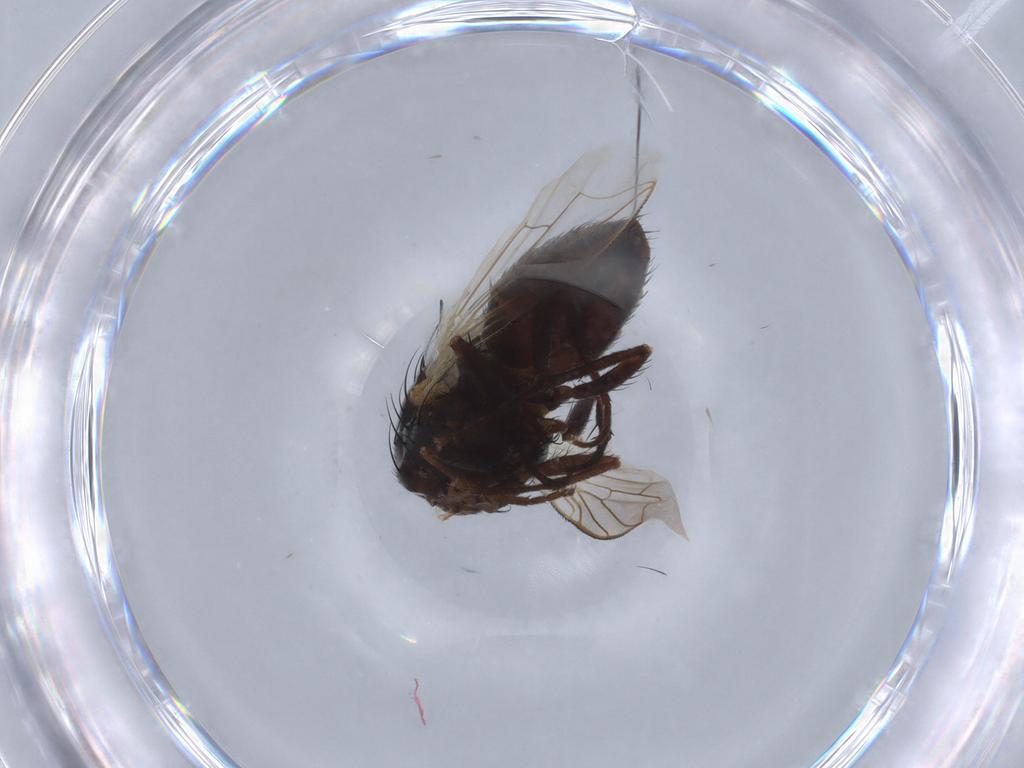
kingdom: Animalia
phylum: Arthropoda
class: Insecta
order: Diptera
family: Sarcophagidae
